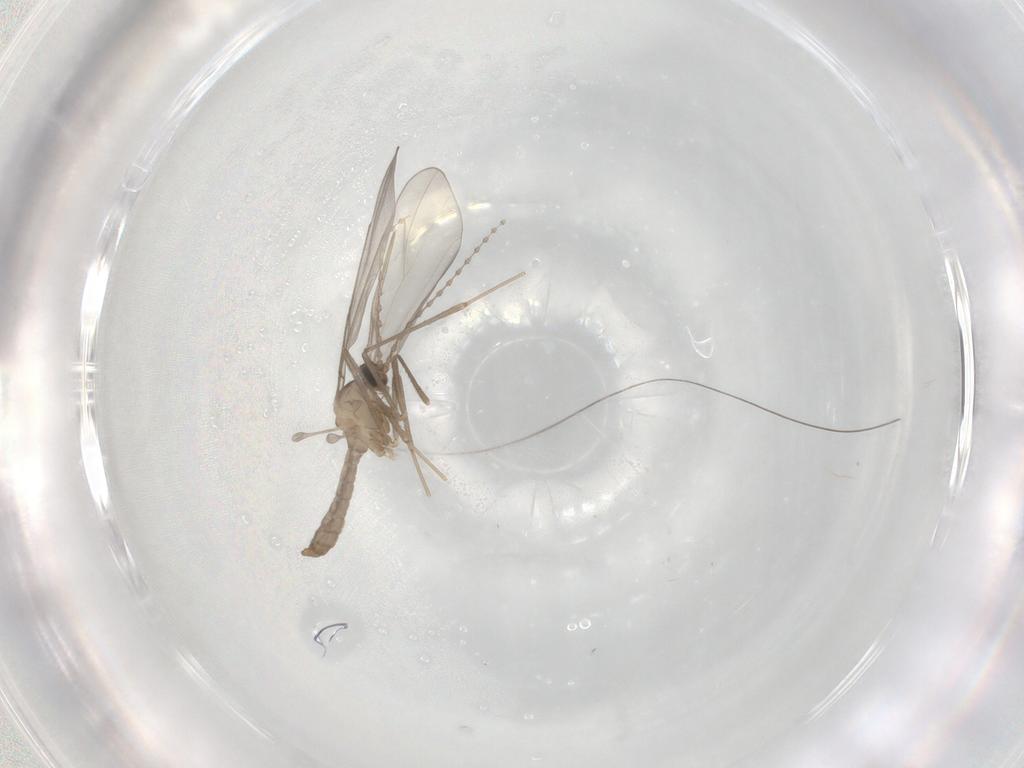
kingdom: Animalia
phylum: Arthropoda
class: Insecta
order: Diptera
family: Cecidomyiidae
